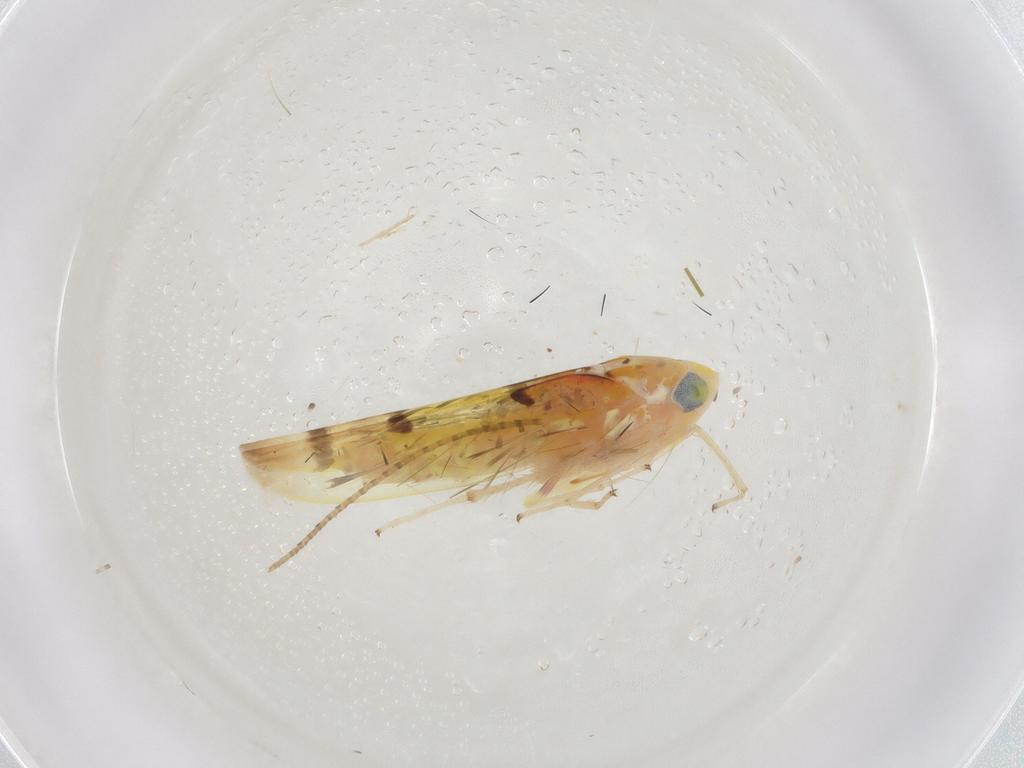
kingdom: Animalia
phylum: Arthropoda
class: Insecta
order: Hemiptera
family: Cicadellidae
